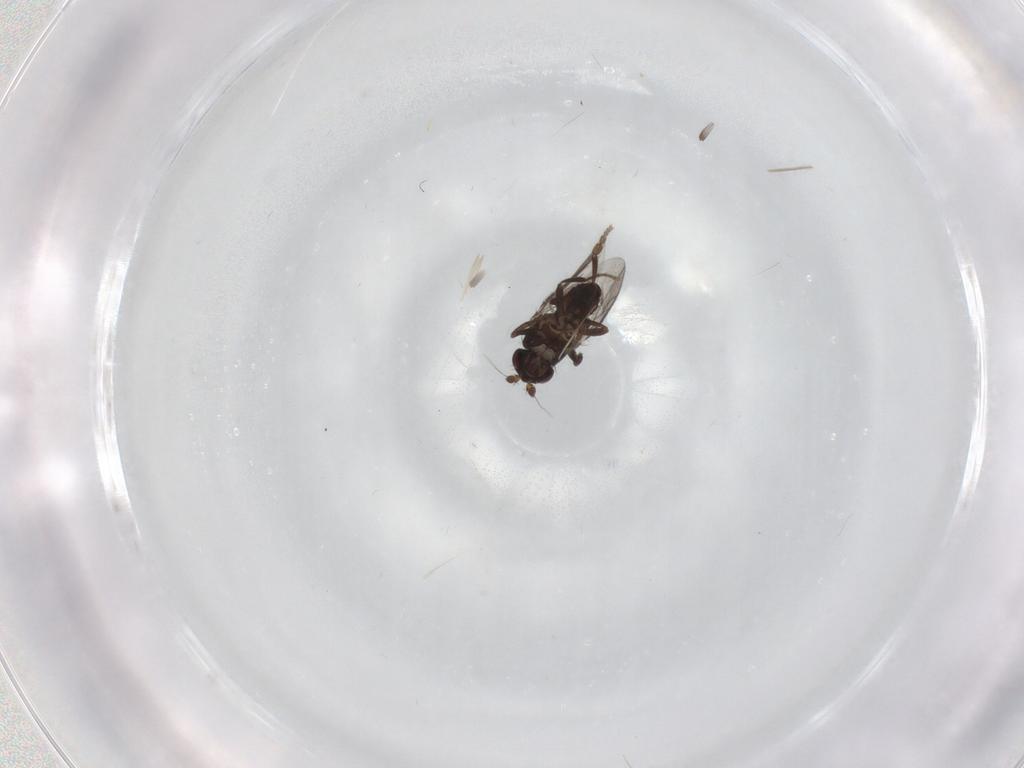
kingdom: Animalia
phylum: Arthropoda
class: Insecta
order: Diptera
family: Sphaeroceridae
